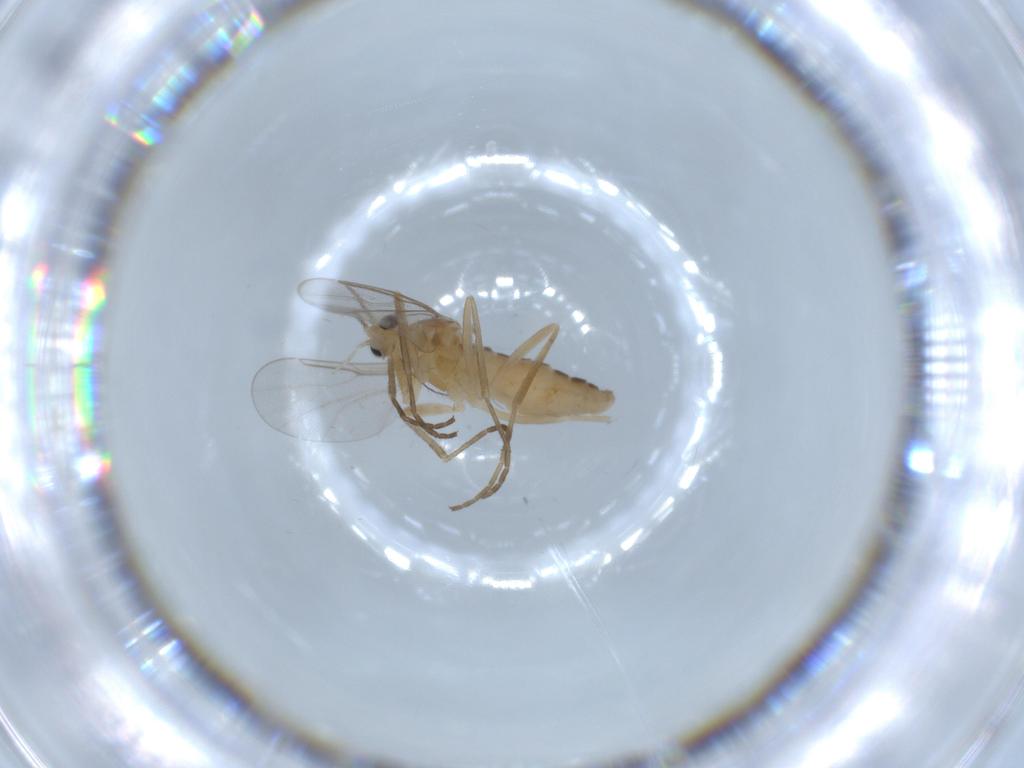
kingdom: Animalia
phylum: Arthropoda
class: Insecta
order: Diptera
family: Cecidomyiidae
